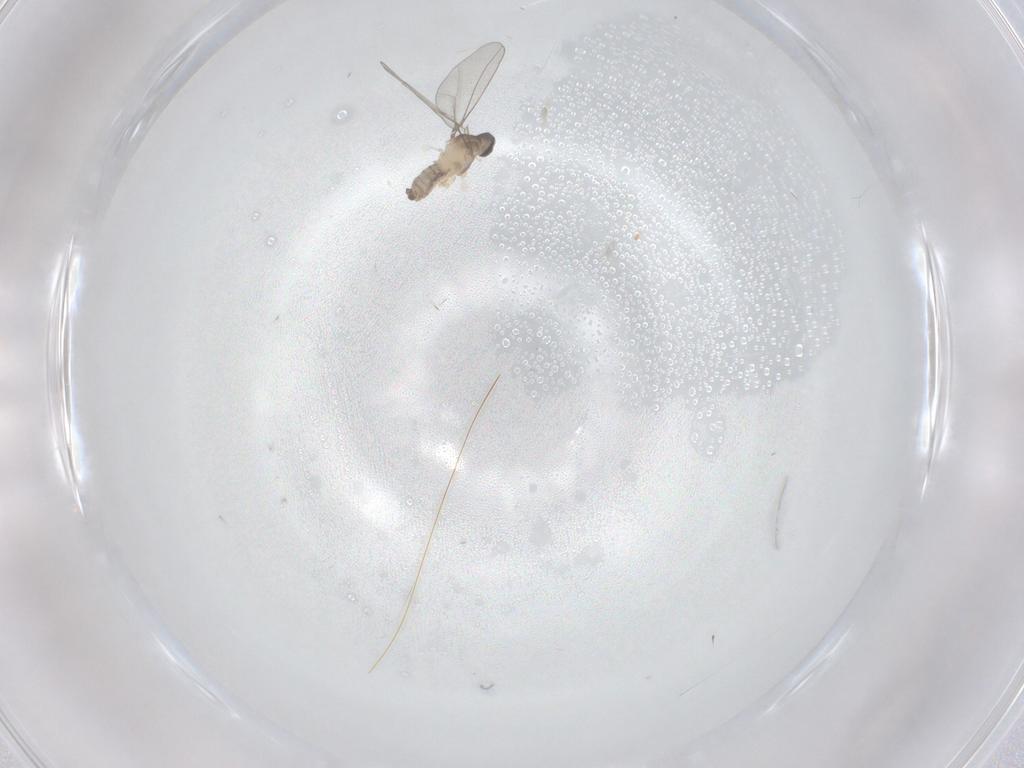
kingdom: Animalia
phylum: Arthropoda
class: Insecta
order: Diptera
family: Cecidomyiidae
